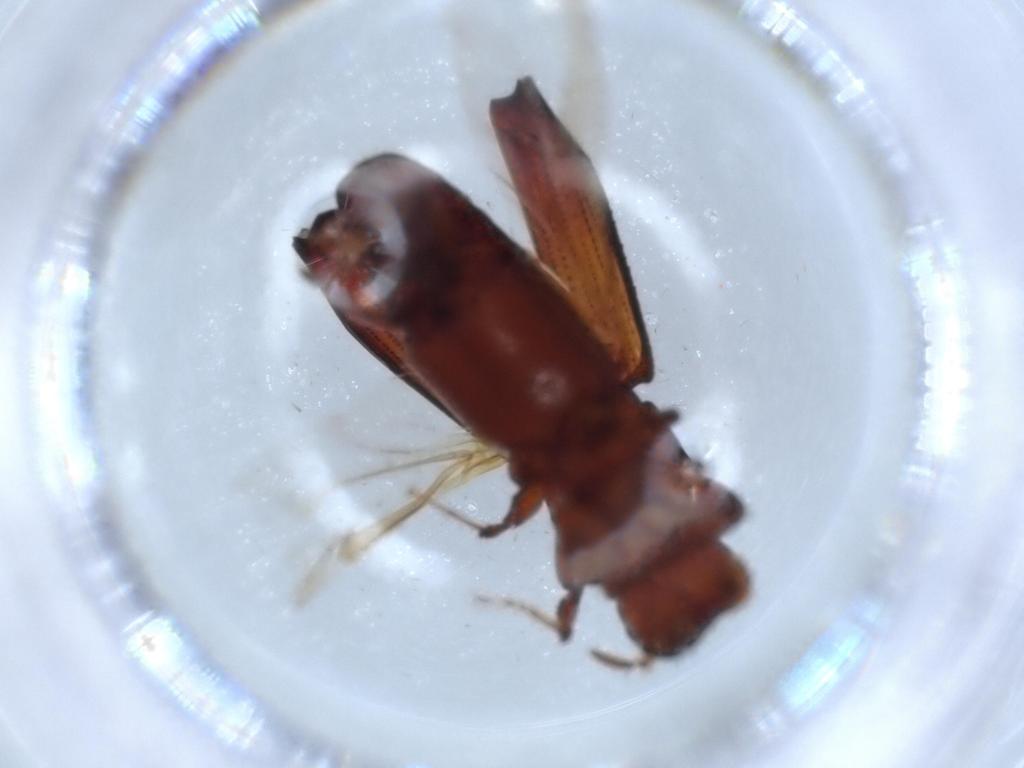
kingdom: Animalia
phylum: Arthropoda
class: Insecta
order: Coleoptera
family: Curculionidae
